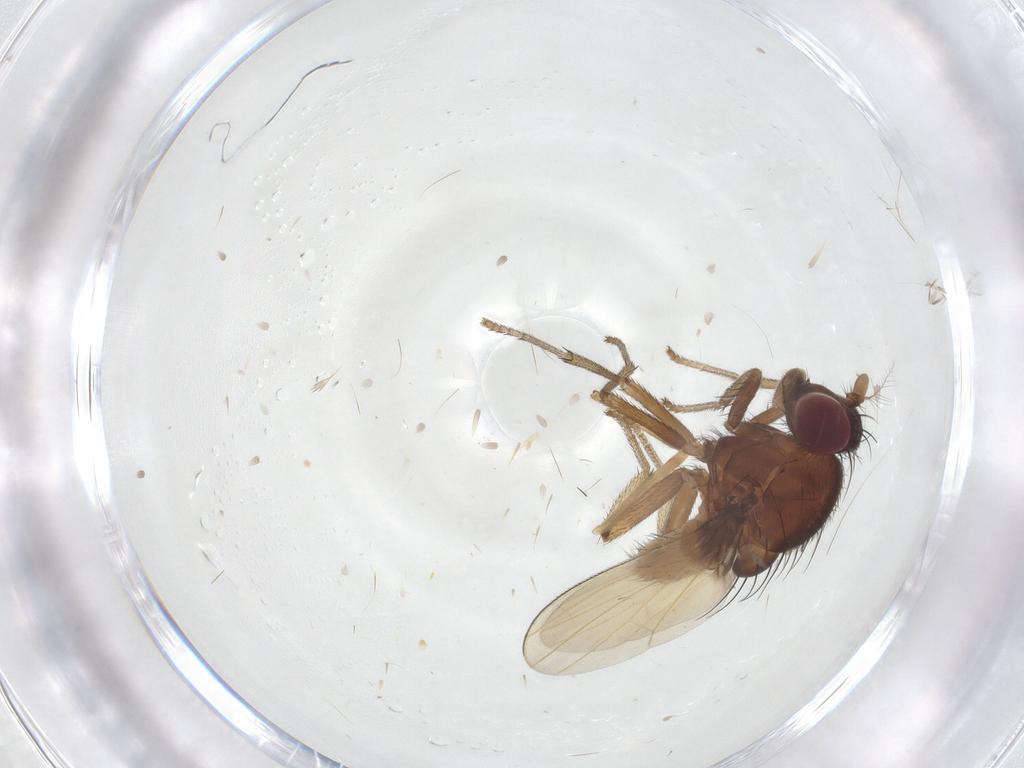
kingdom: Animalia
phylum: Arthropoda
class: Insecta
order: Diptera
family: Chironomidae
